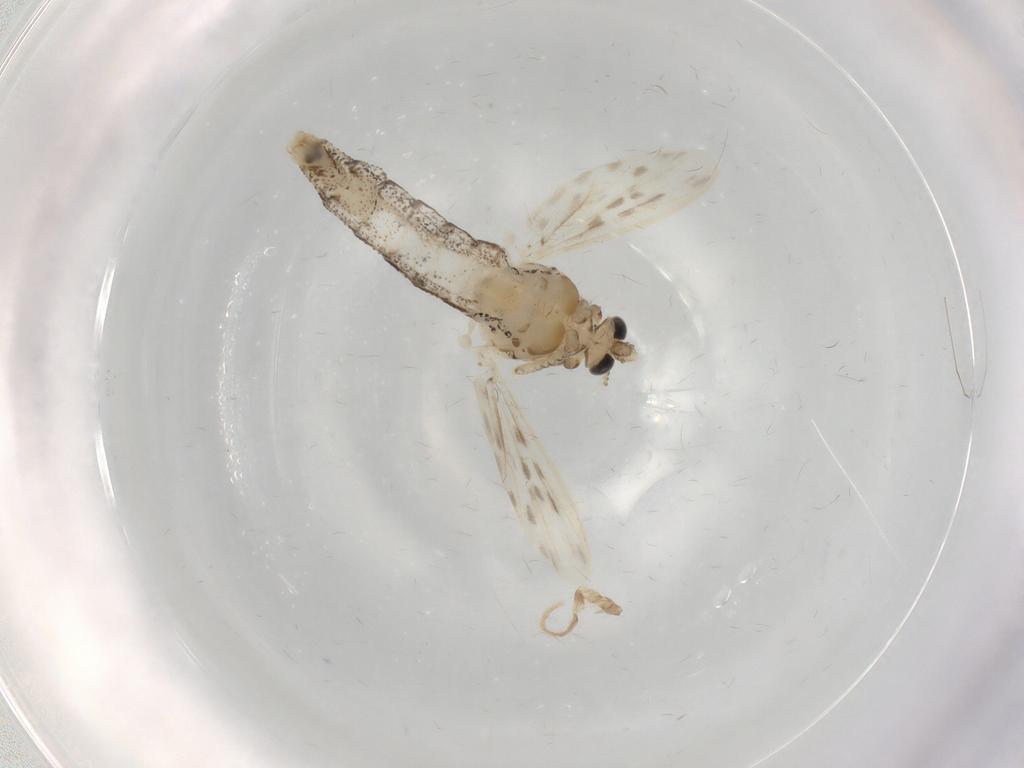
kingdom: Animalia
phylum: Arthropoda
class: Insecta
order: Diptera
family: Chaoboridae
